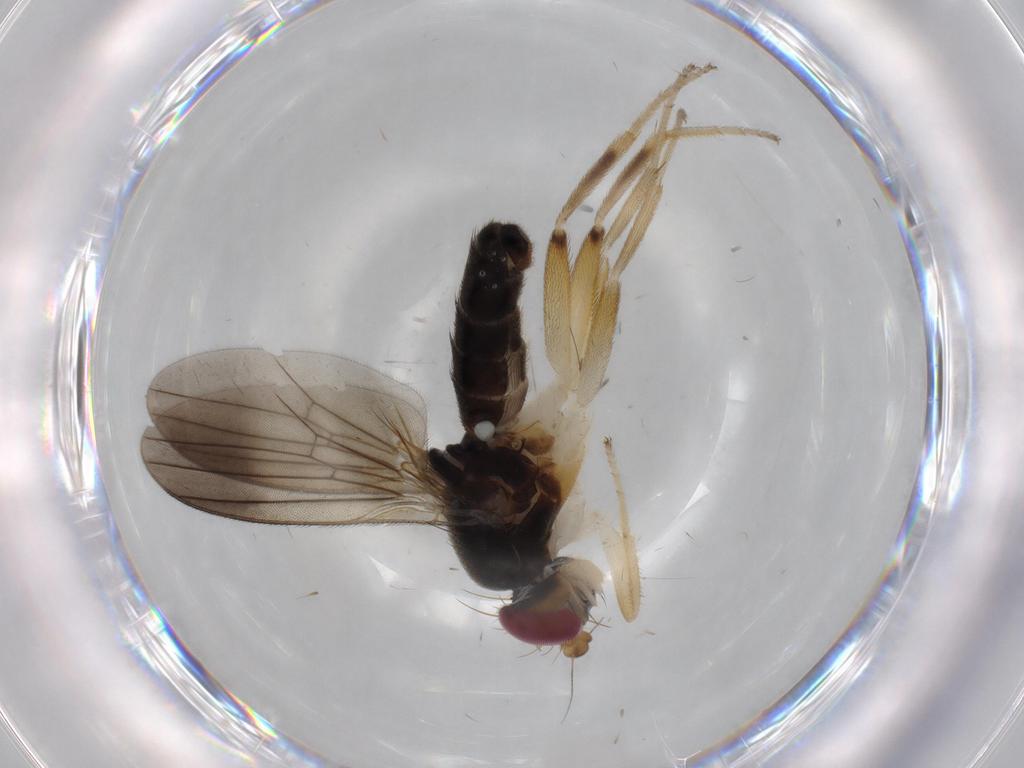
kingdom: Animalia
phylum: Arthropoda
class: Insecta
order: Diptera
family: Clusiidae
